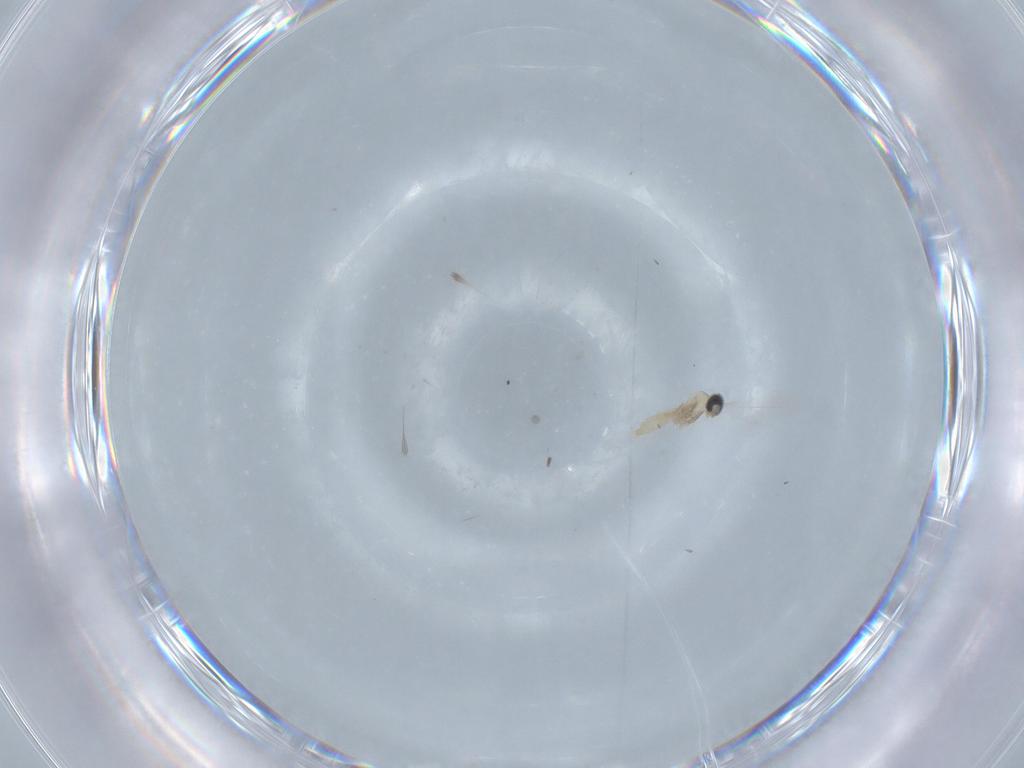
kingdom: Animalia
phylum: Arthropoda
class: Insecta
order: Diptera
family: Cecidomyiidae
